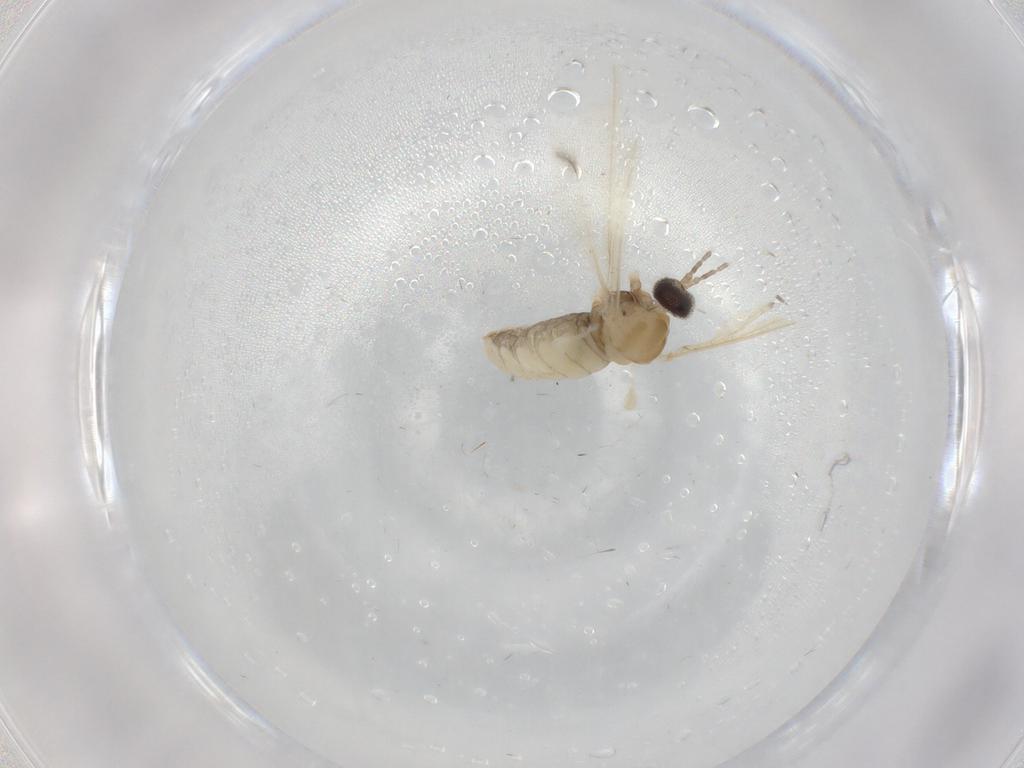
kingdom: Animalia
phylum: Arthropoda
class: Insecta
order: Diptera
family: Cecidomyiidae
